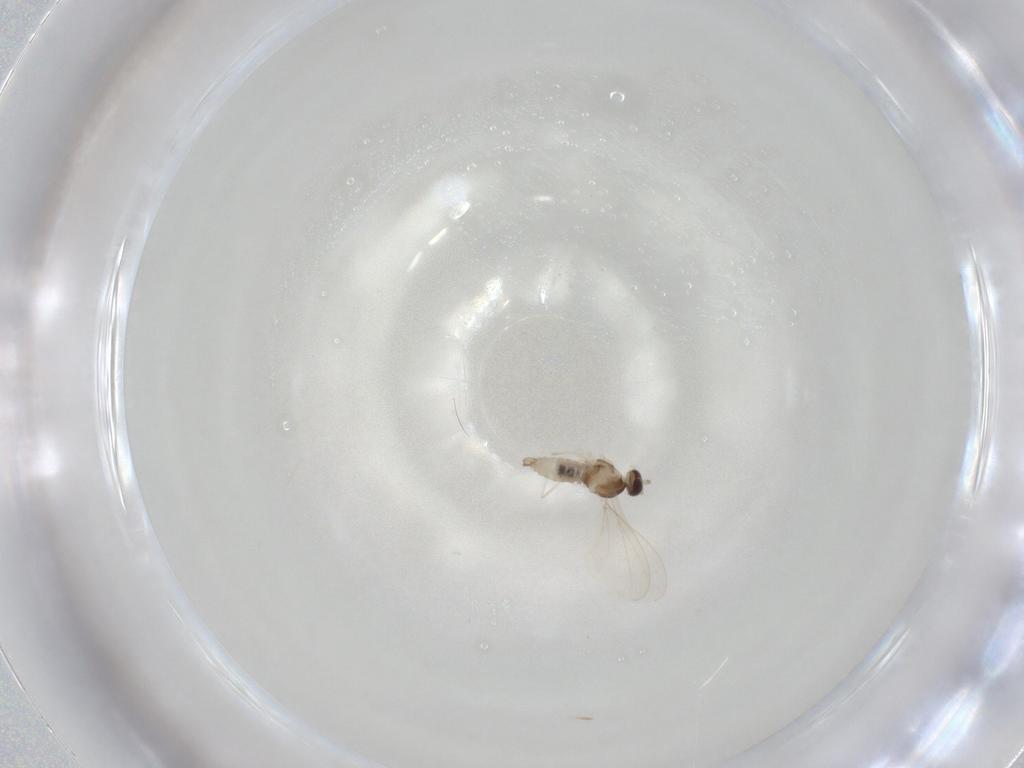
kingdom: Animalia
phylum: Arthropoda
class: Insecta
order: Diptera
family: Cecidomyiidae
